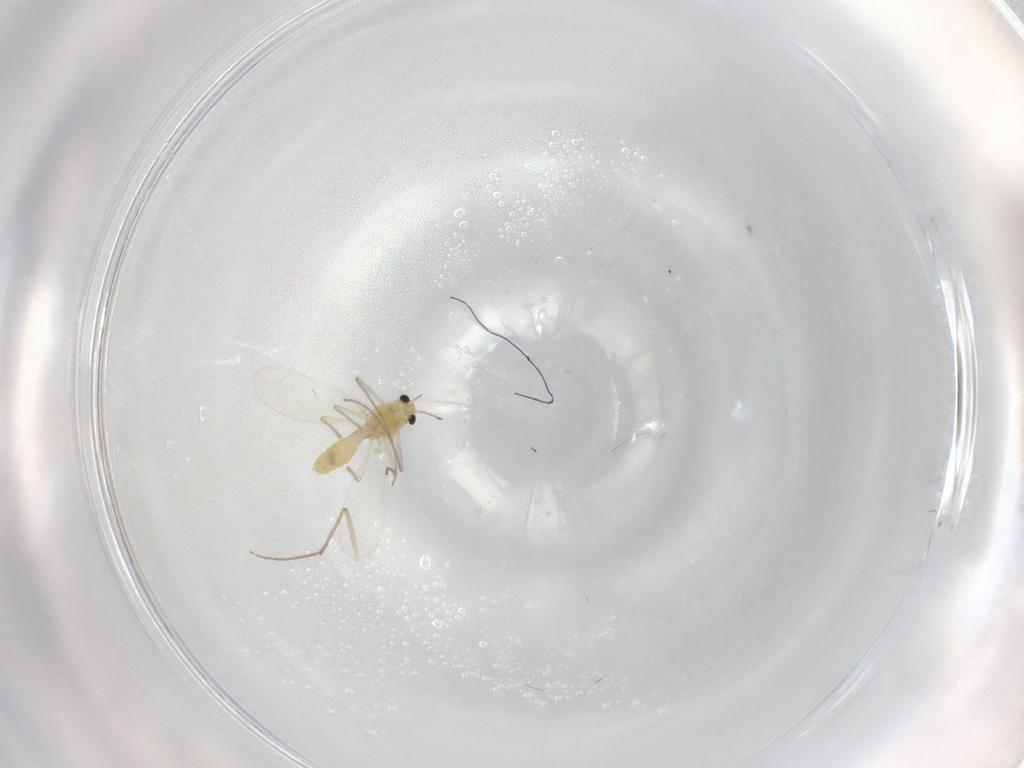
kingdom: Animalia
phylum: Arthropoda
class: Insecta
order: Diptera
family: Chironomidae
